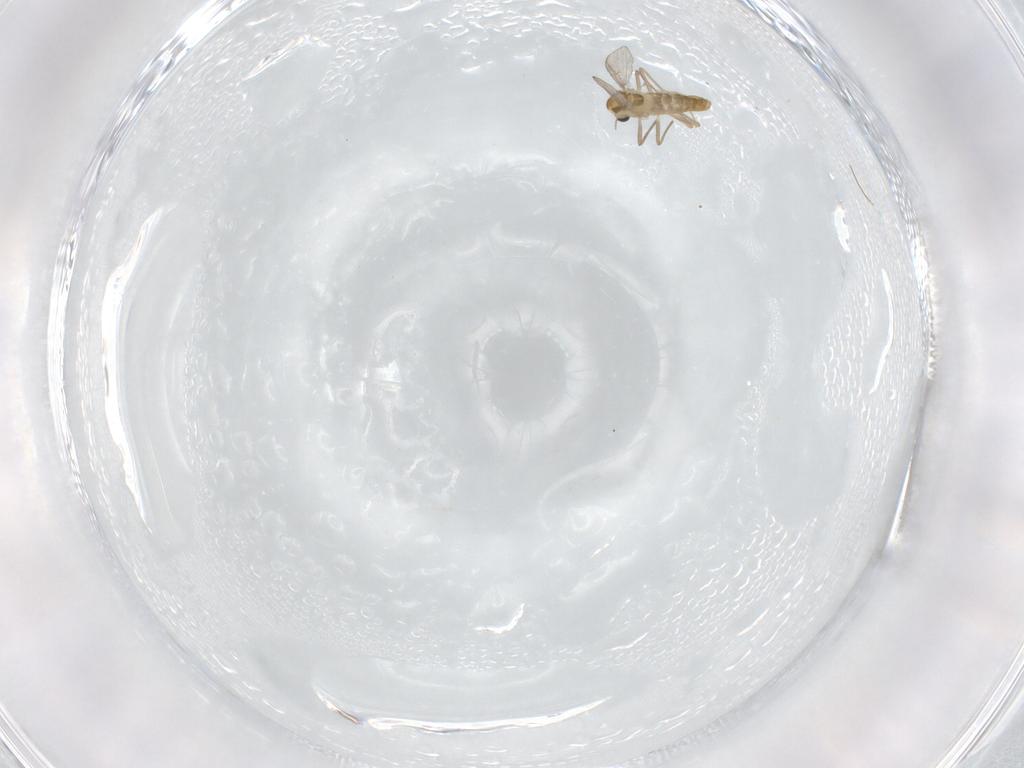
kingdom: Animalia
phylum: Arthropoda
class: Insecta
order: Diptera
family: Chironomidae
